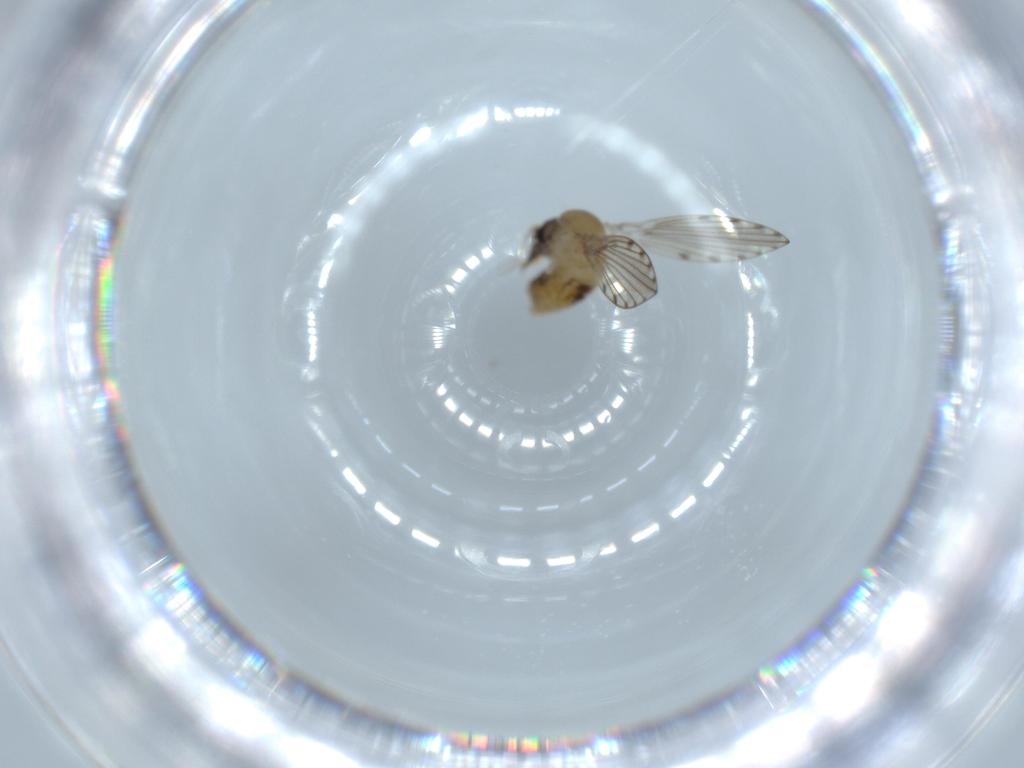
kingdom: Animalia
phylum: Arthropoda
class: Insecta
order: Diptera
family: Psychodidae
